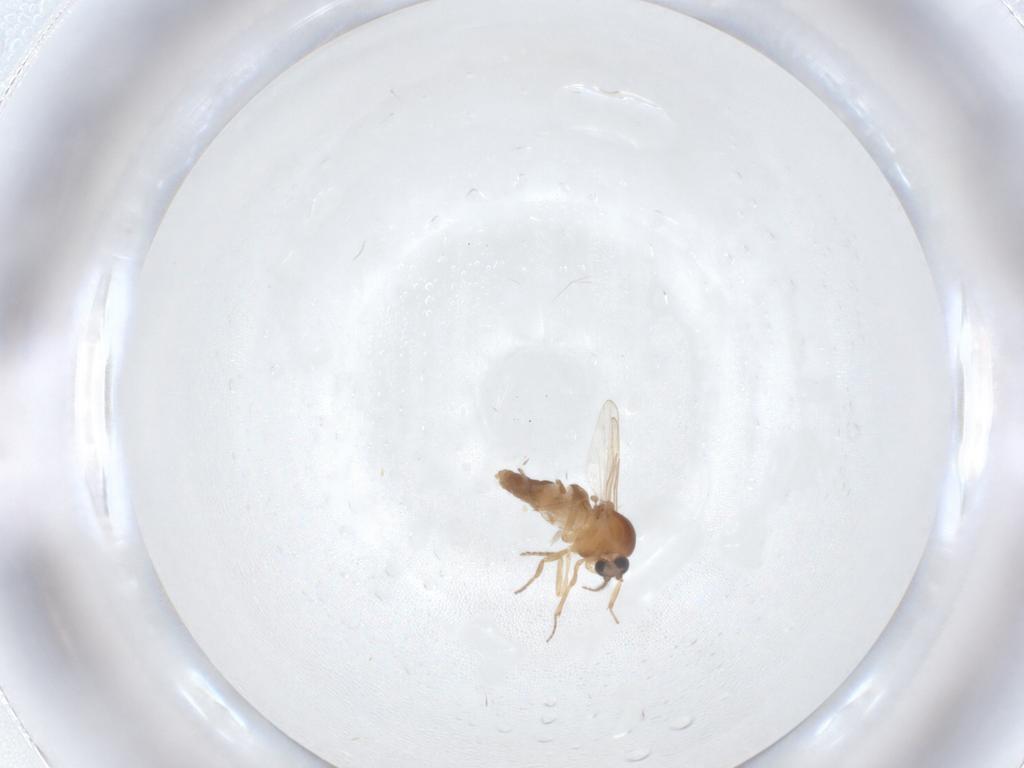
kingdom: Animalia
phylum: Arthropoda
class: Insecta
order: Diptera
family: Ceratopogonidae
